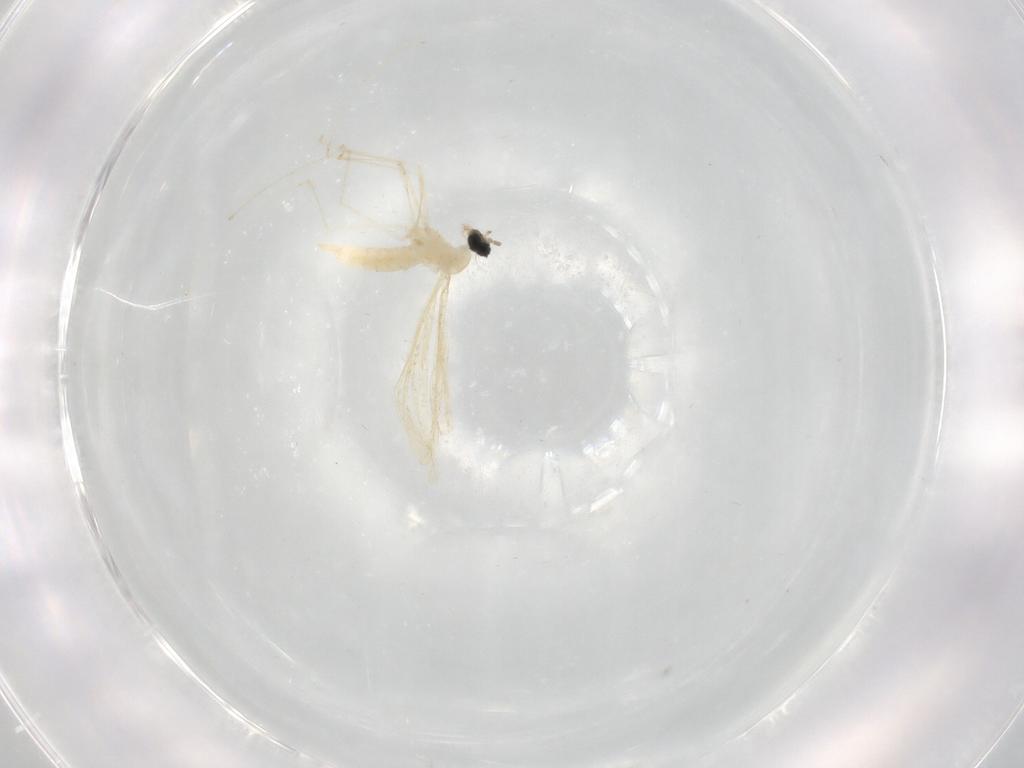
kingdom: Animalia
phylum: Arthropoda
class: Insecta
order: Diptera
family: Cecidomyiidae
